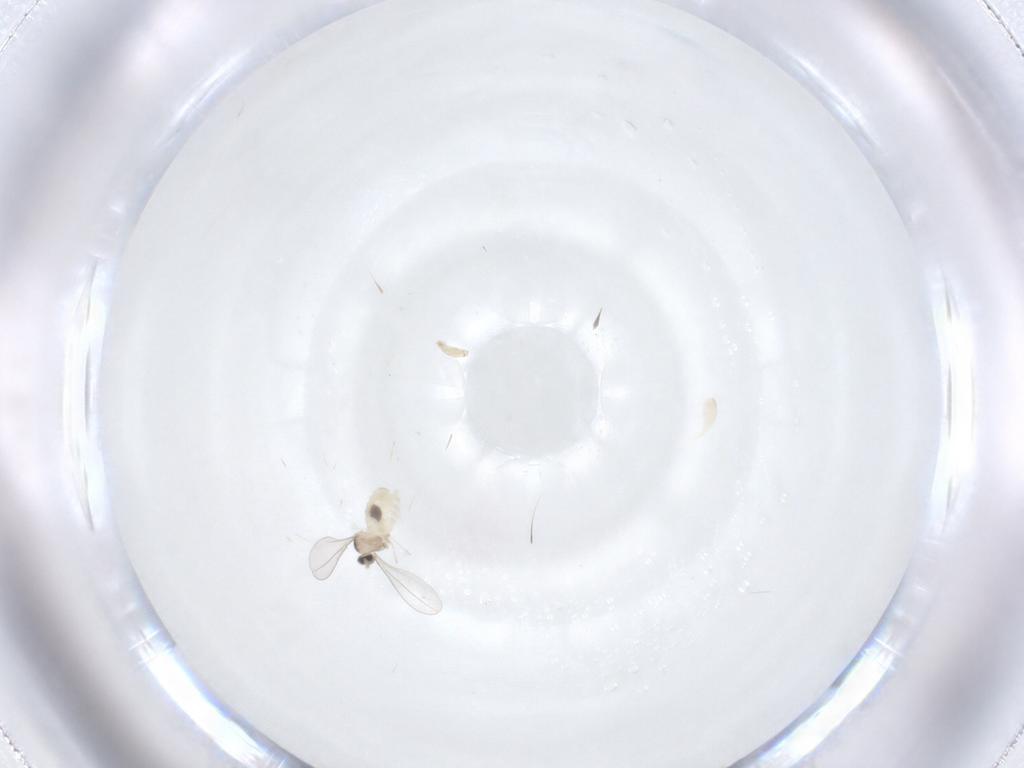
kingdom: Animalia
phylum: Arthropoda
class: Insecta
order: Diptera
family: Cecidomyiidae
